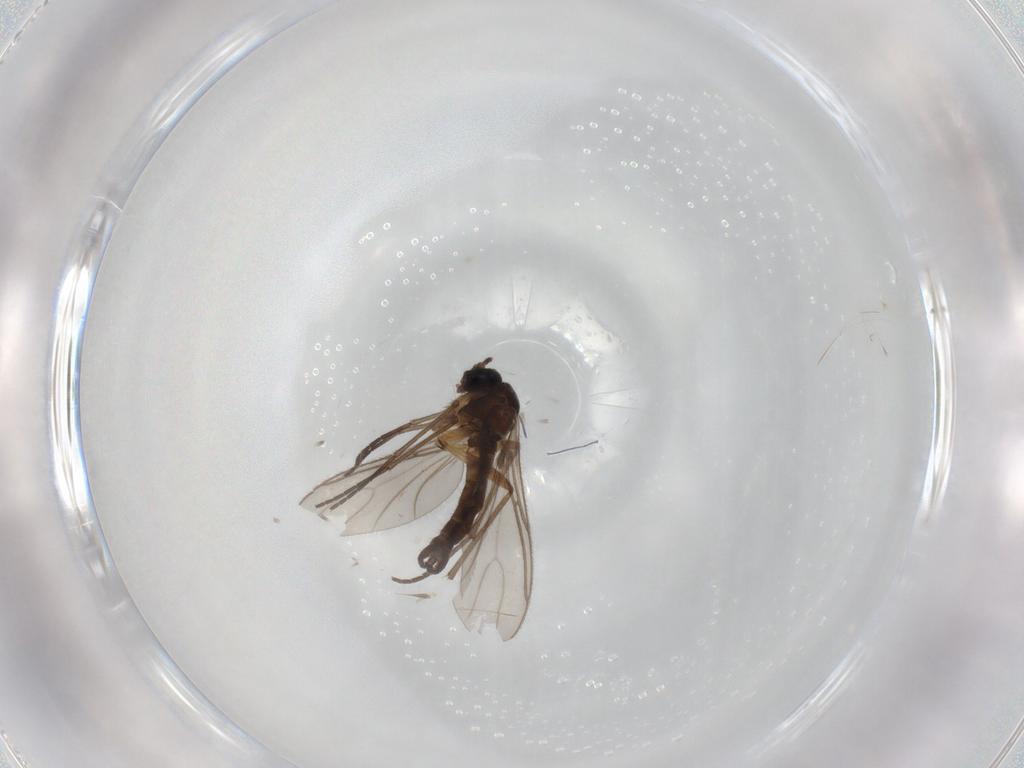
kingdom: Animalia
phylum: Arthropoda
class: Insecta
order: Diptera
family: Sciaridae
